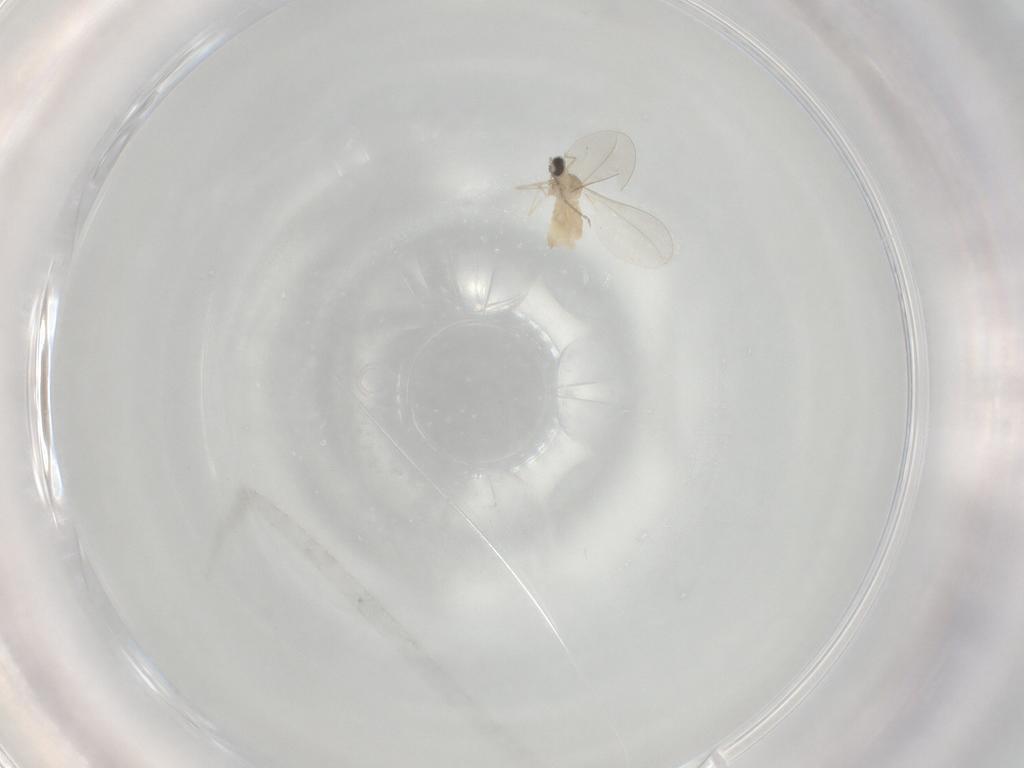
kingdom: Animalia
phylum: Arthropoda
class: Insecta
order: Diptera
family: Cecidomyiidae
